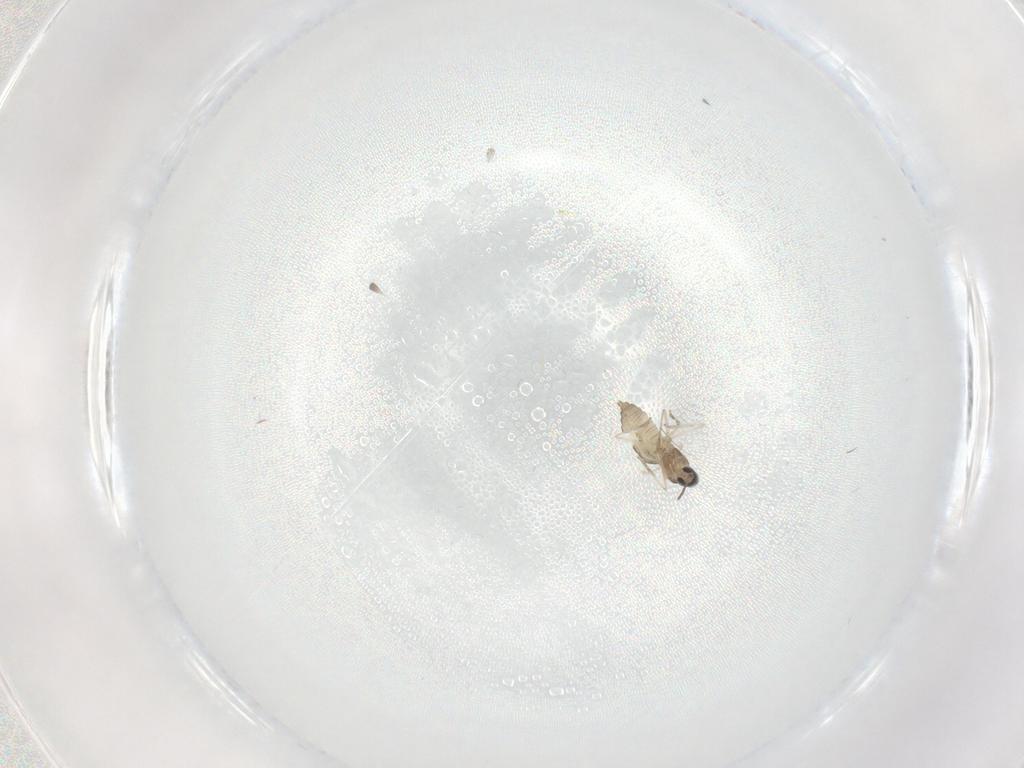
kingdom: Animalia
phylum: Arthropoda
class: Insecta
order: Diptera
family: Cecidomyiidae
